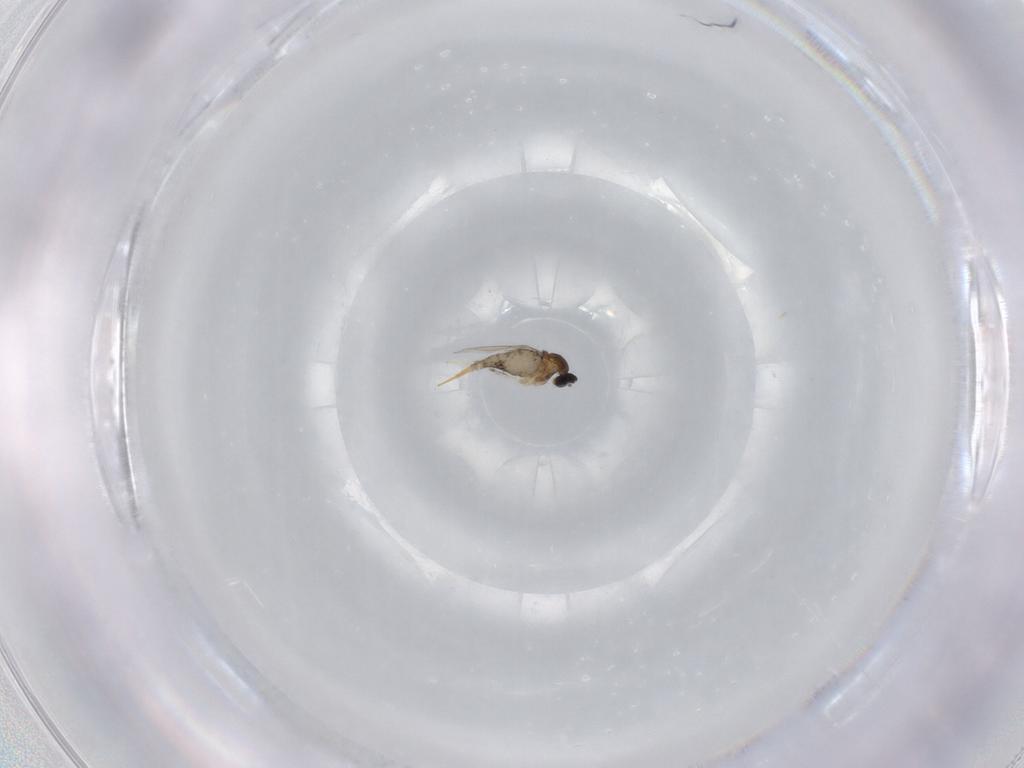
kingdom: Animalia
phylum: Arthropoda
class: Insecta
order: Diptera
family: Cecidomyiidae
